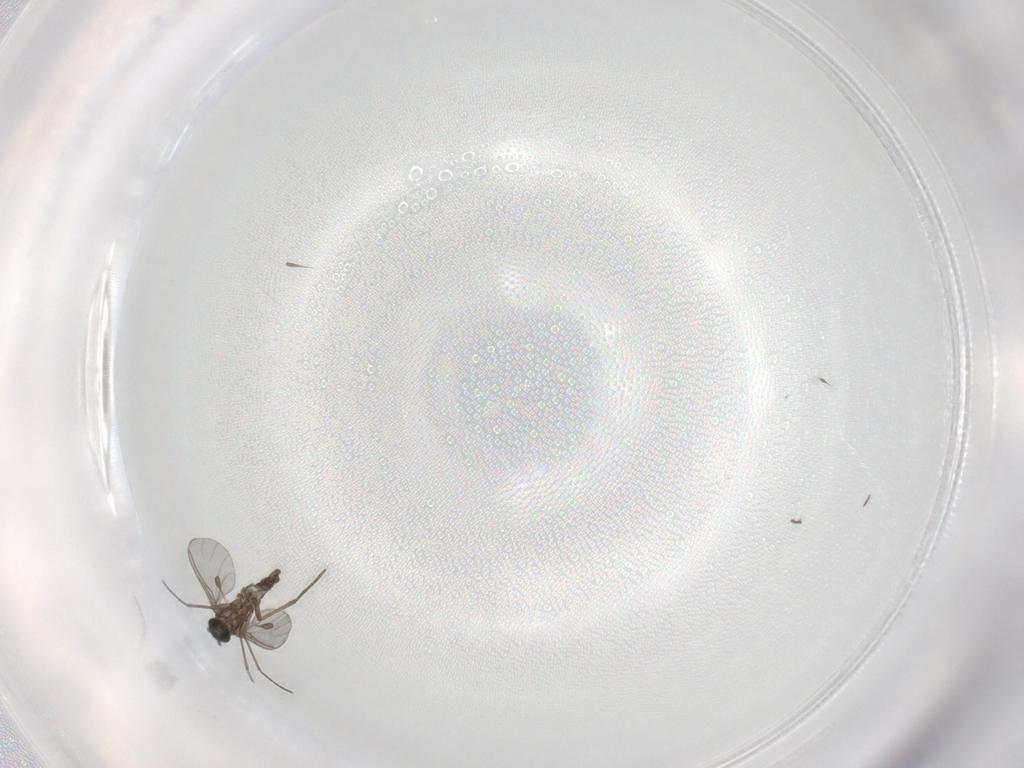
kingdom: Animalia
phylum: Arthropoda
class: Insecta
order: Diptera
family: Sciaridae
